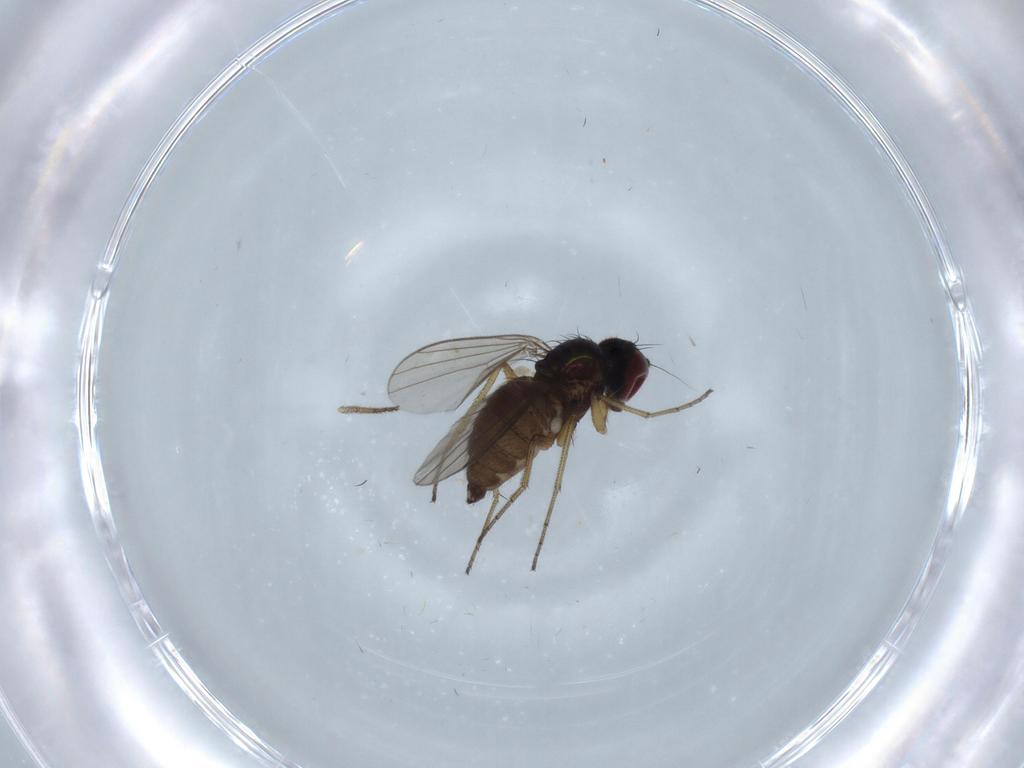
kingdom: Animalia
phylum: Arthropoda
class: Insecta
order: Diptera
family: Dolichopodidae
